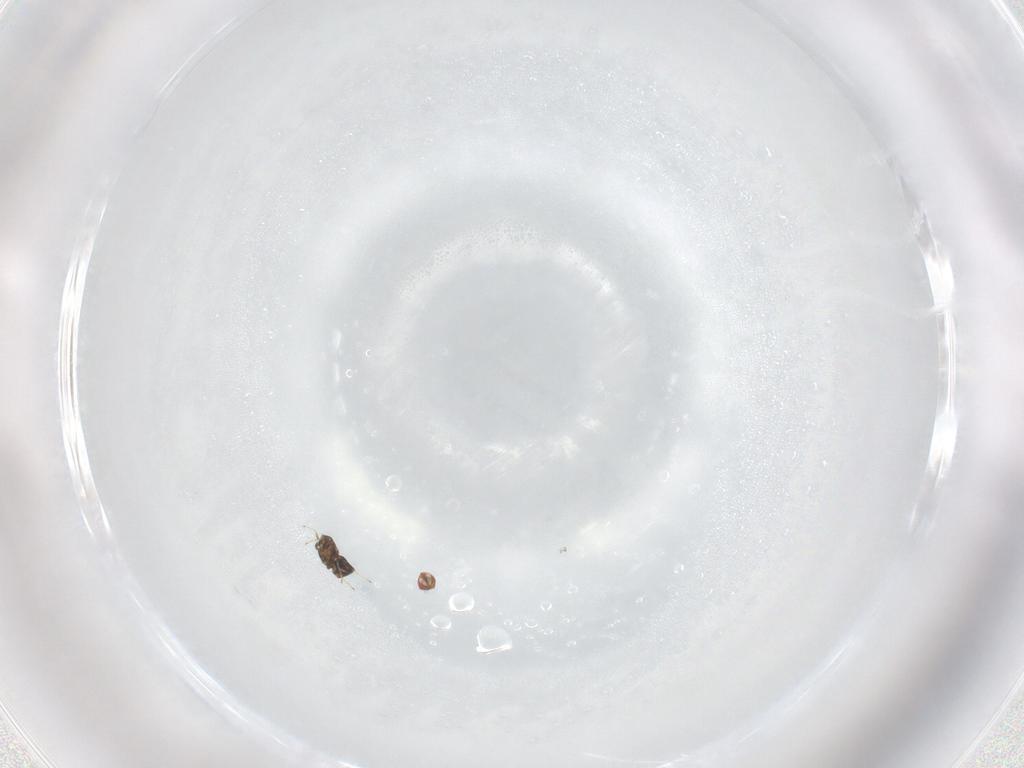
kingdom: Animalia
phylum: Arthropoda
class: Insecta
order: Hymenoptera
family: Trichogrammatidae
